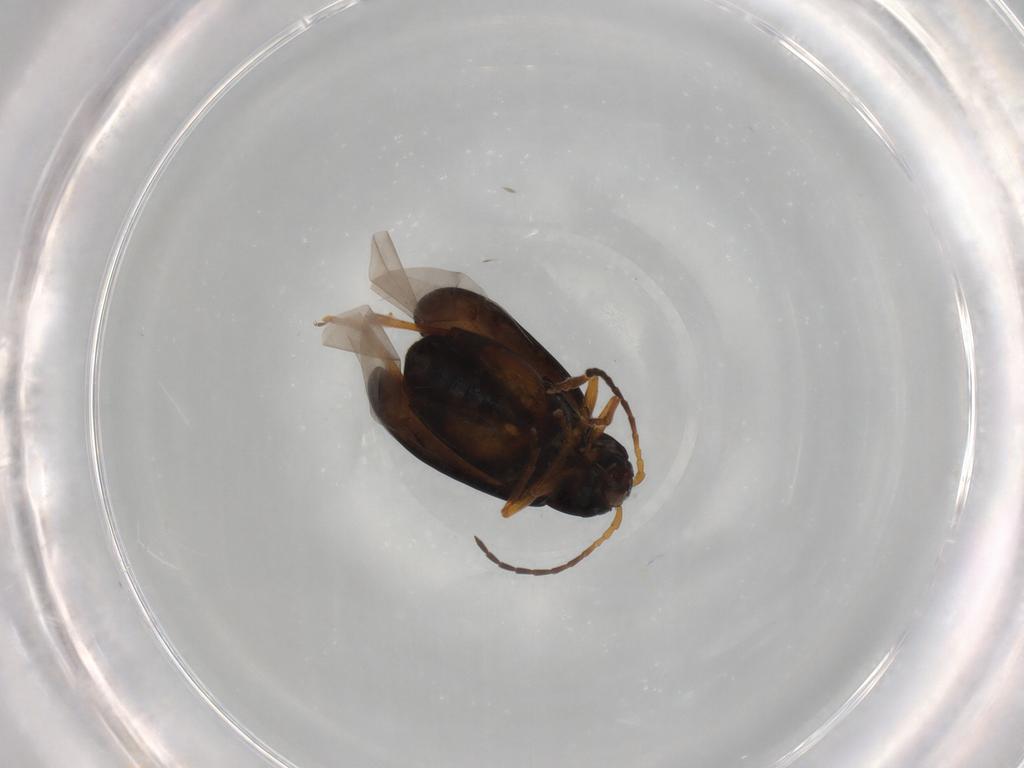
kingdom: Animalia
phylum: Arthropoda
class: Insecta
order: Coleoptera
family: Chrysomelidae
